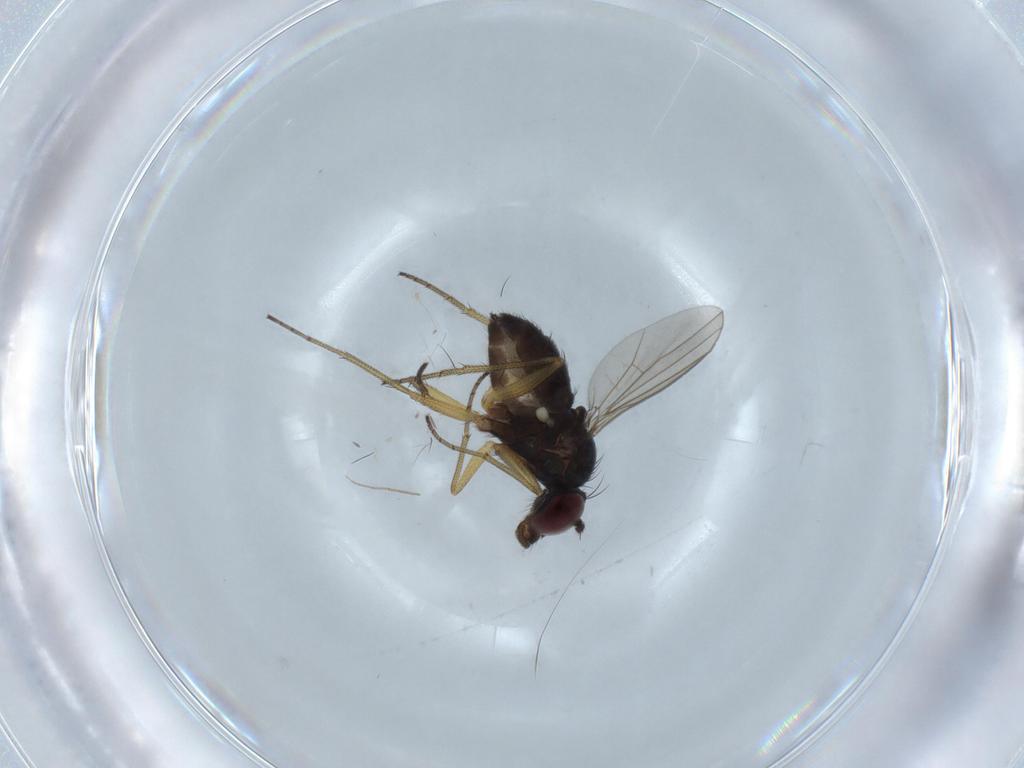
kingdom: Animalia
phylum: Arthropoda
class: Insecta
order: Diptera
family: Dolichopodidae
